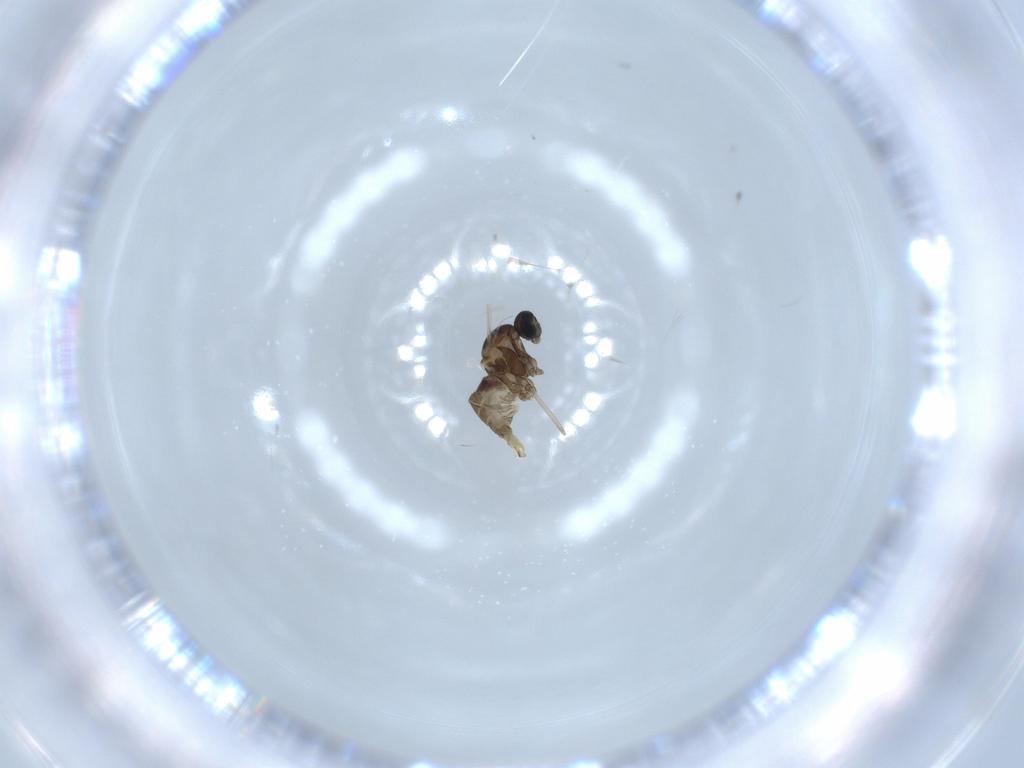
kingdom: Animalia
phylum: Arthropoda
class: Insecta
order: Diptera
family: Cecidomyiidae
